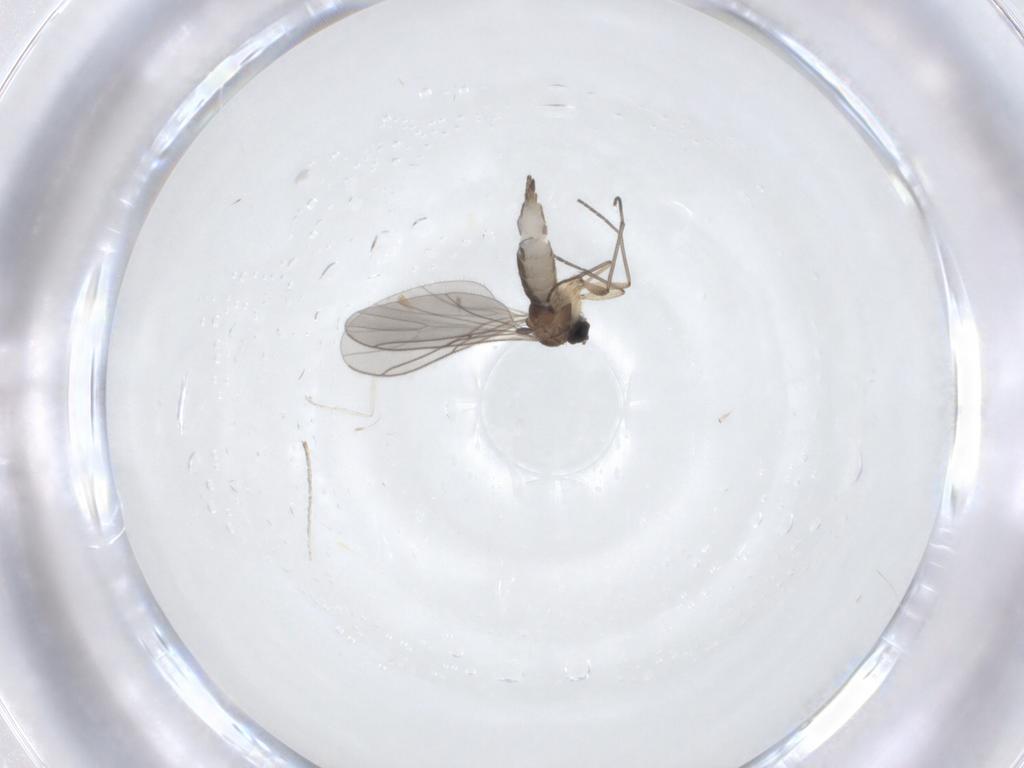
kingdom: Animalia
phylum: Arthropoda
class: Insecta
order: Diptera
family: Sciaridae
